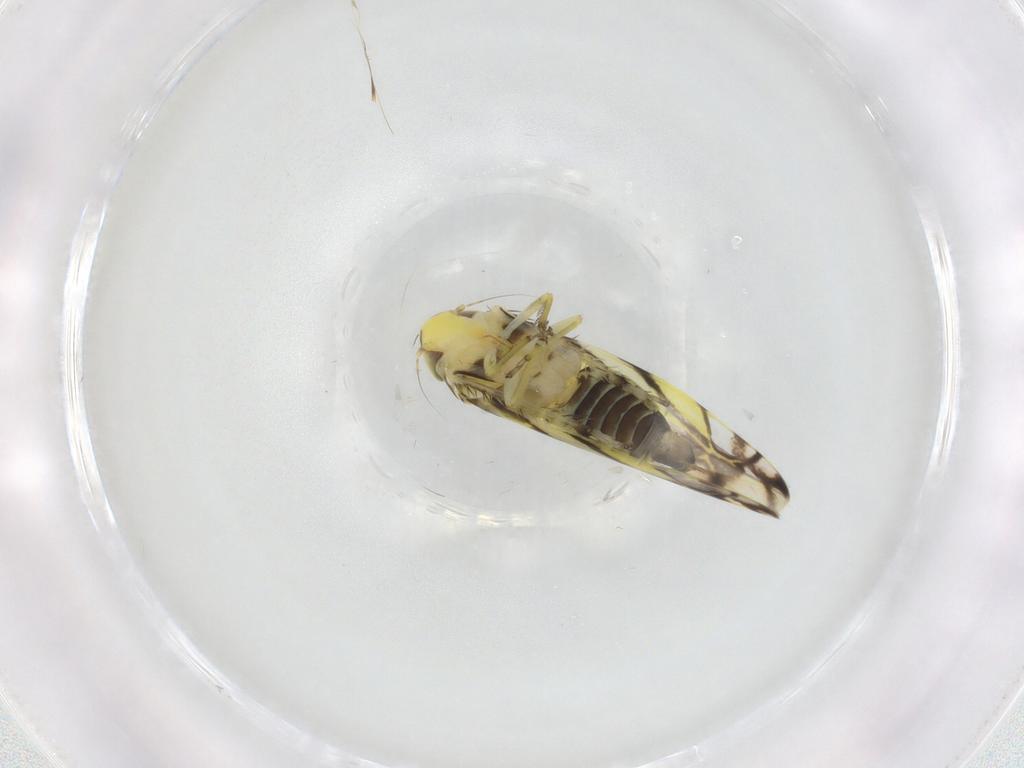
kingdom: Animalia
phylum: Arthropoda
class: Insecta
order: Hemiptera
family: Cicadellidae
